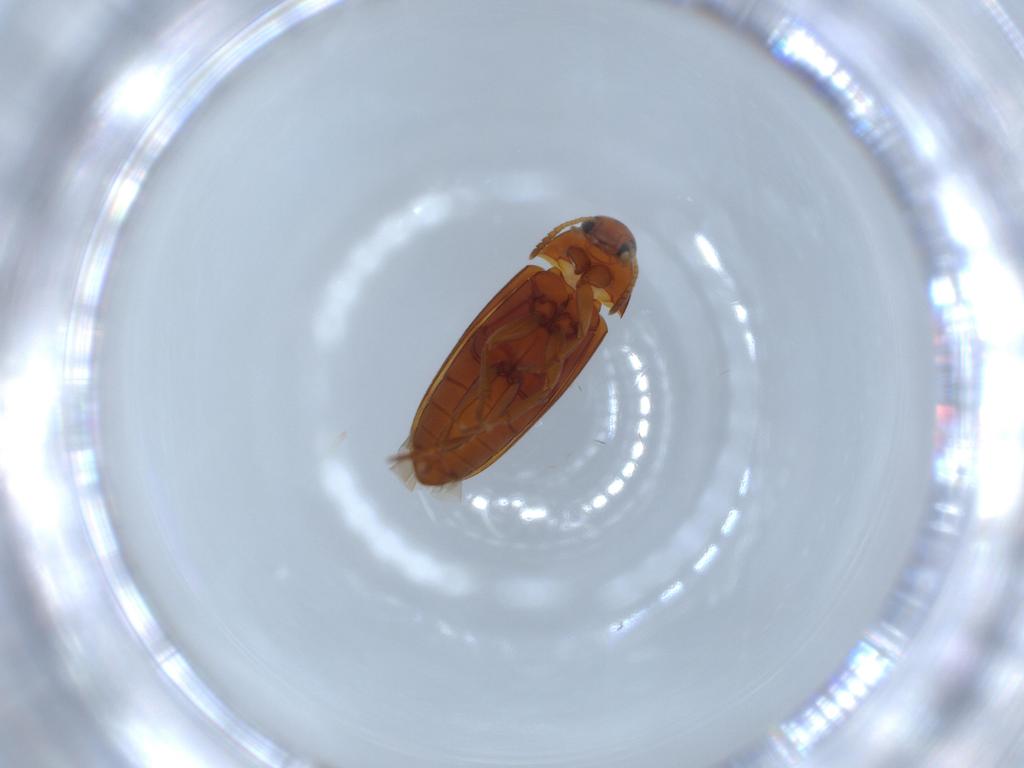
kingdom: Animalia
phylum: Arthropoda
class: Insecta
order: Coleoptera
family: Scraptiidae
